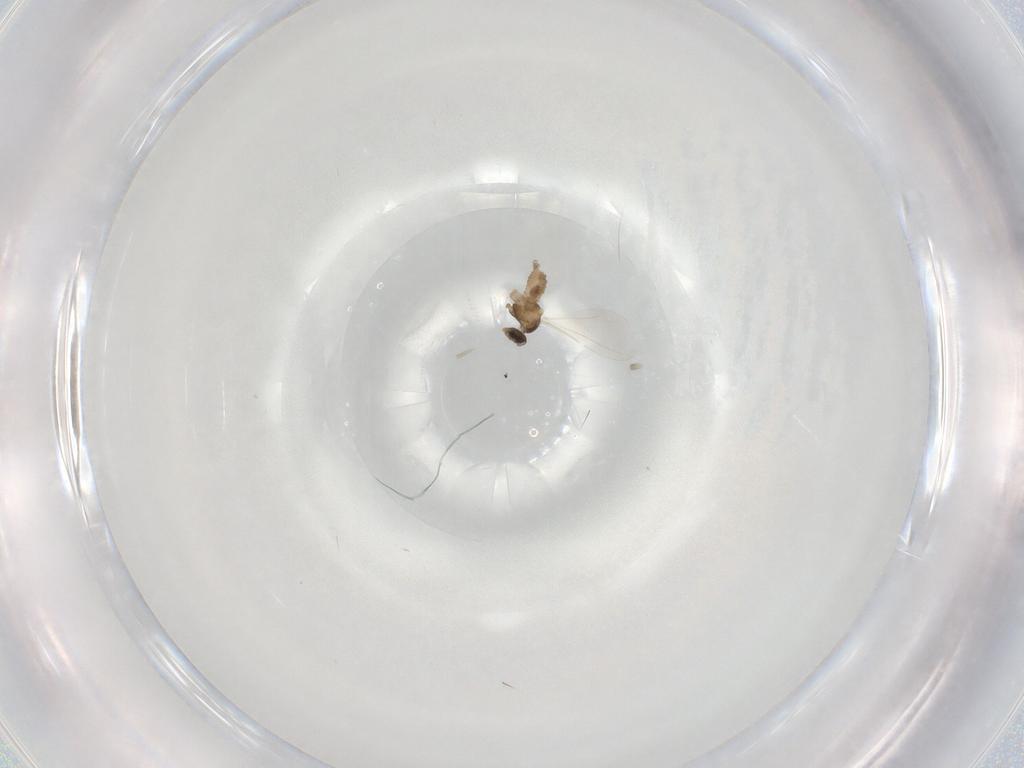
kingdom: Animalia
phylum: Arthropoda
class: Insecta
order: Diptera
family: Cecidomyiidae
